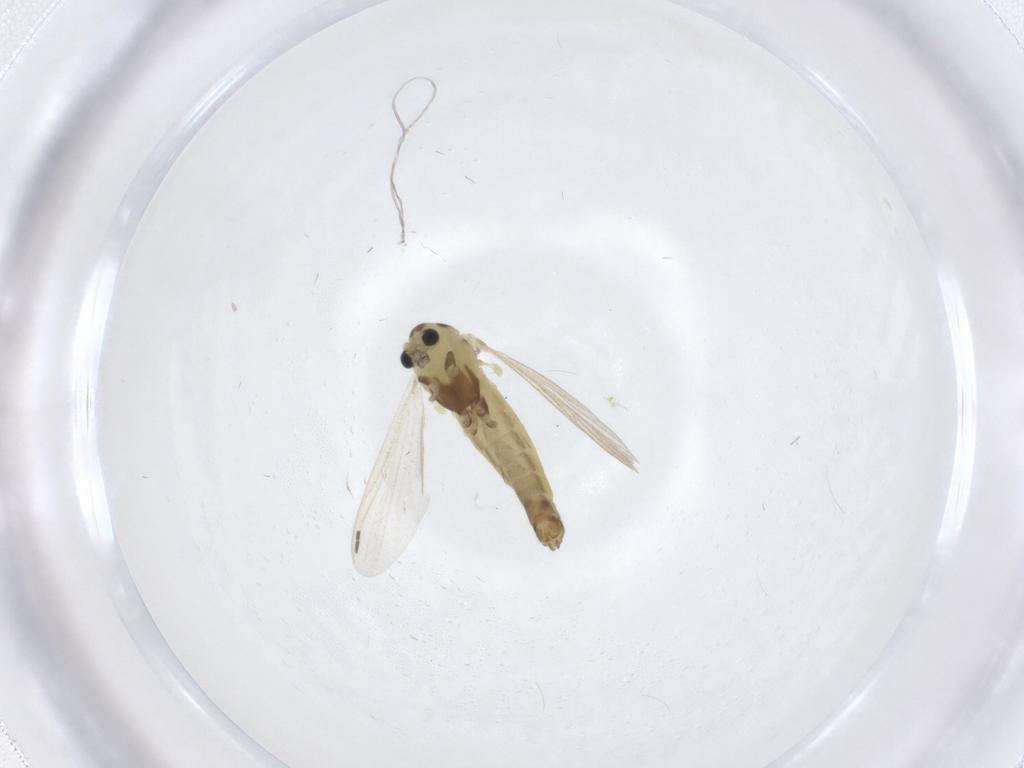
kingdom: Animalia
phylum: Arthropoda
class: Insecta
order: Diptera
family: Chironomidae
